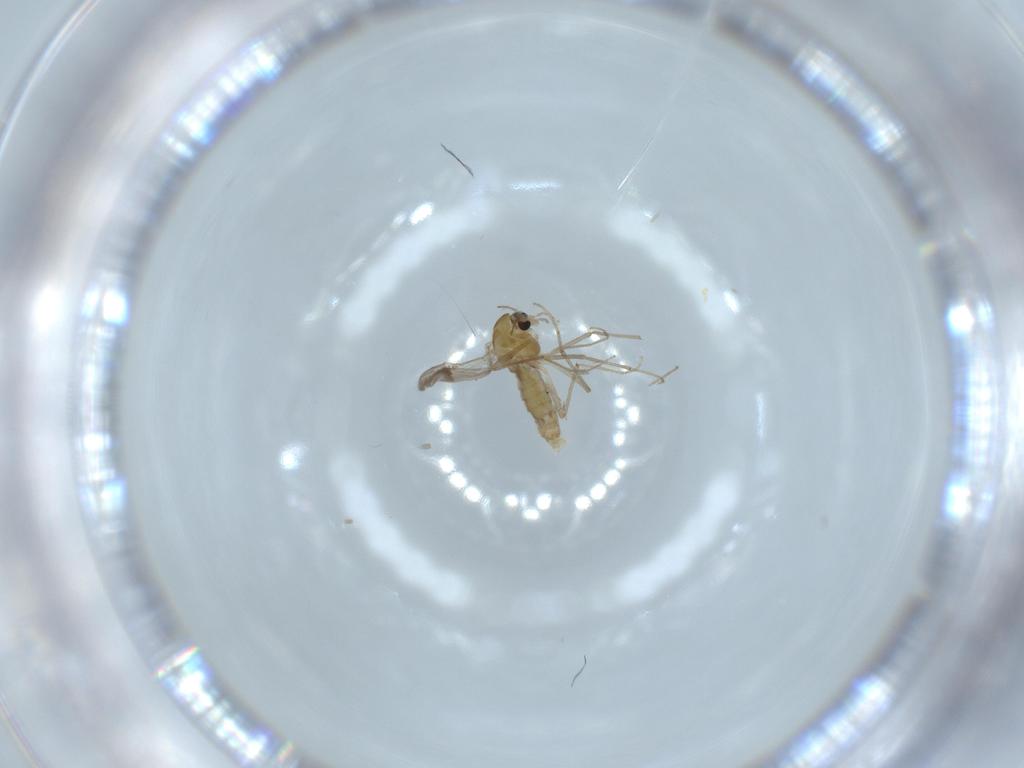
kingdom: Animalia
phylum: Arthropoda
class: Insecta
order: Diptera
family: Chironomidae
